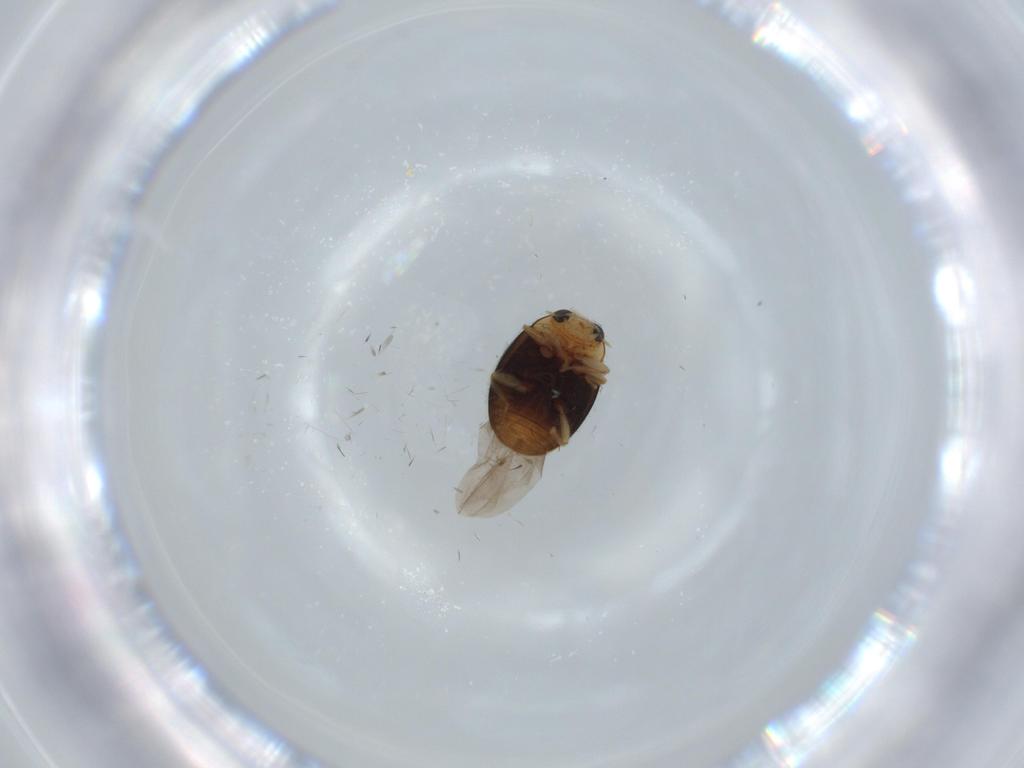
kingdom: Animalia
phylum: Arthropoda
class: Insecta
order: Coleoptera
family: Coccinellidae
